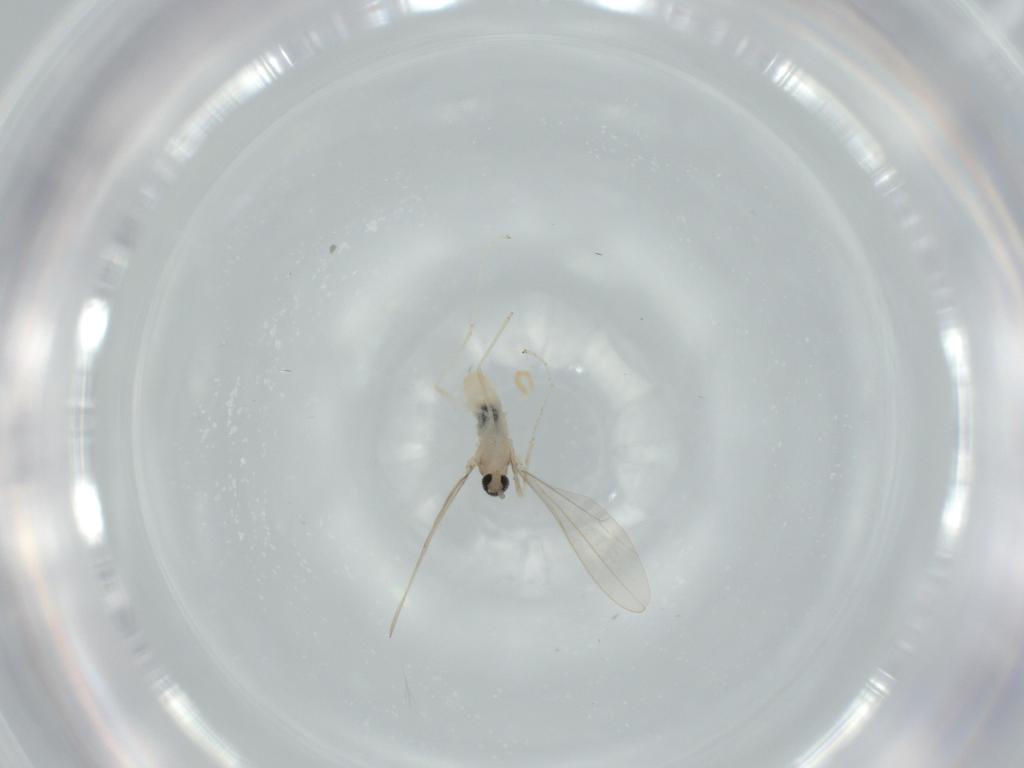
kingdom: Animalia
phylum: Arthropoda
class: Insecta
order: Diptera
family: Cecidomyiidae
